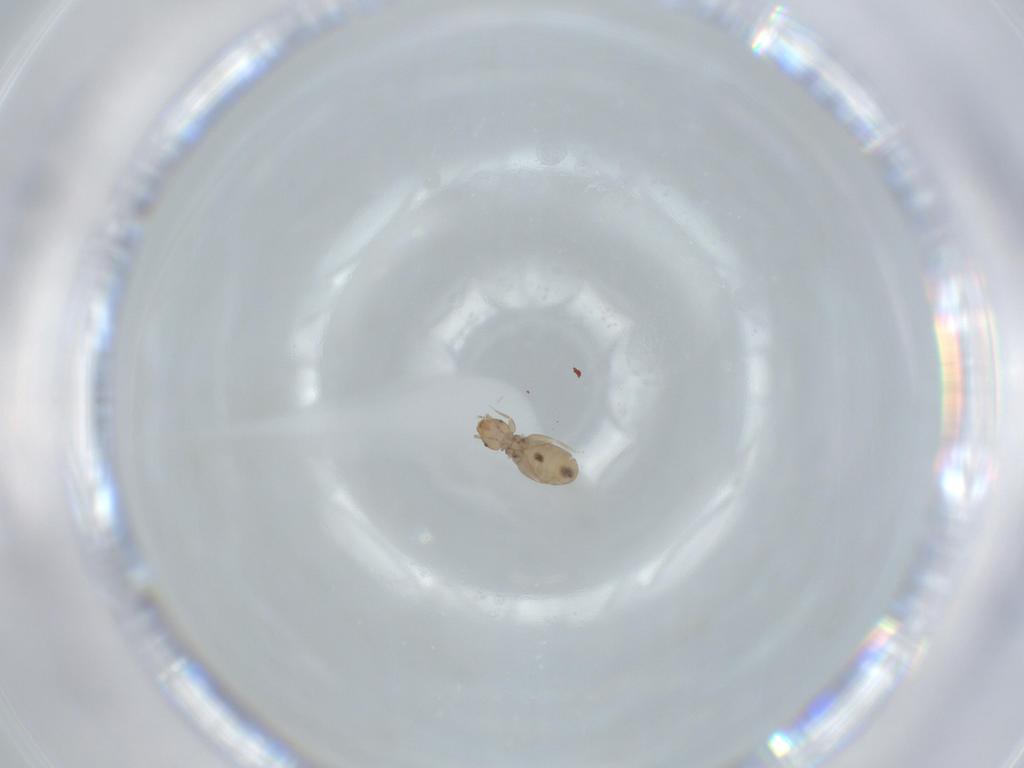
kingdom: Animalia
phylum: Arthropoda
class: Insecta
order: Psocodea
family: Liposcelididae
